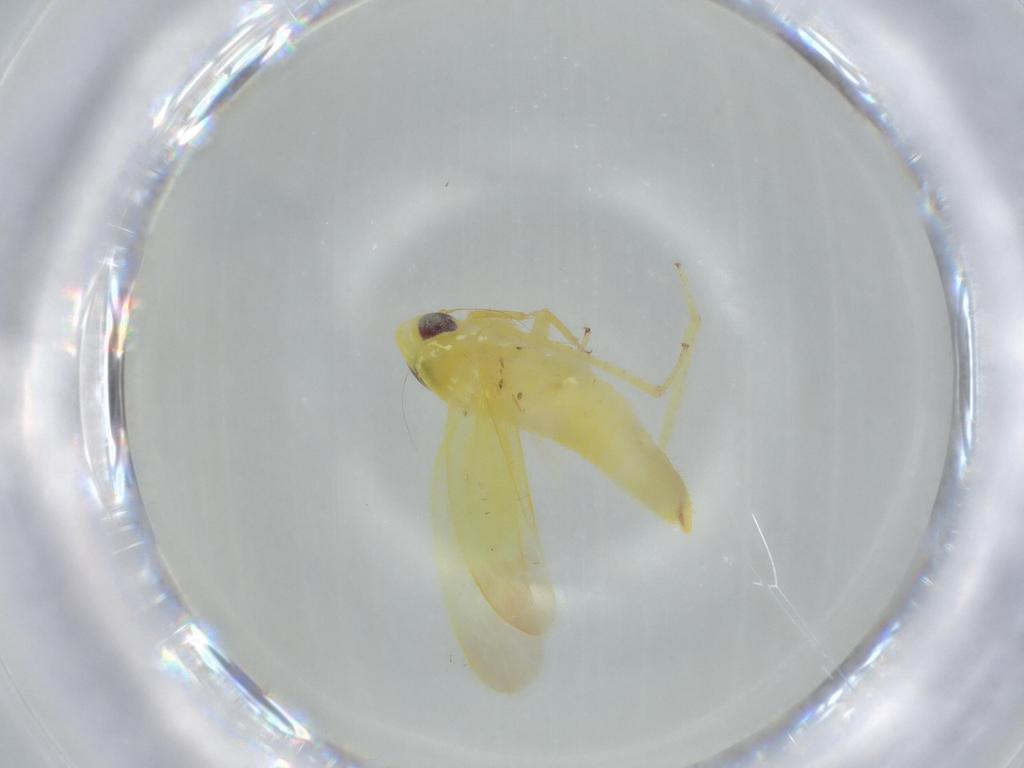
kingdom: Animalia
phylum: Arthropoda
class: Insecta
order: Hemiptera
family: Cicadellidae
